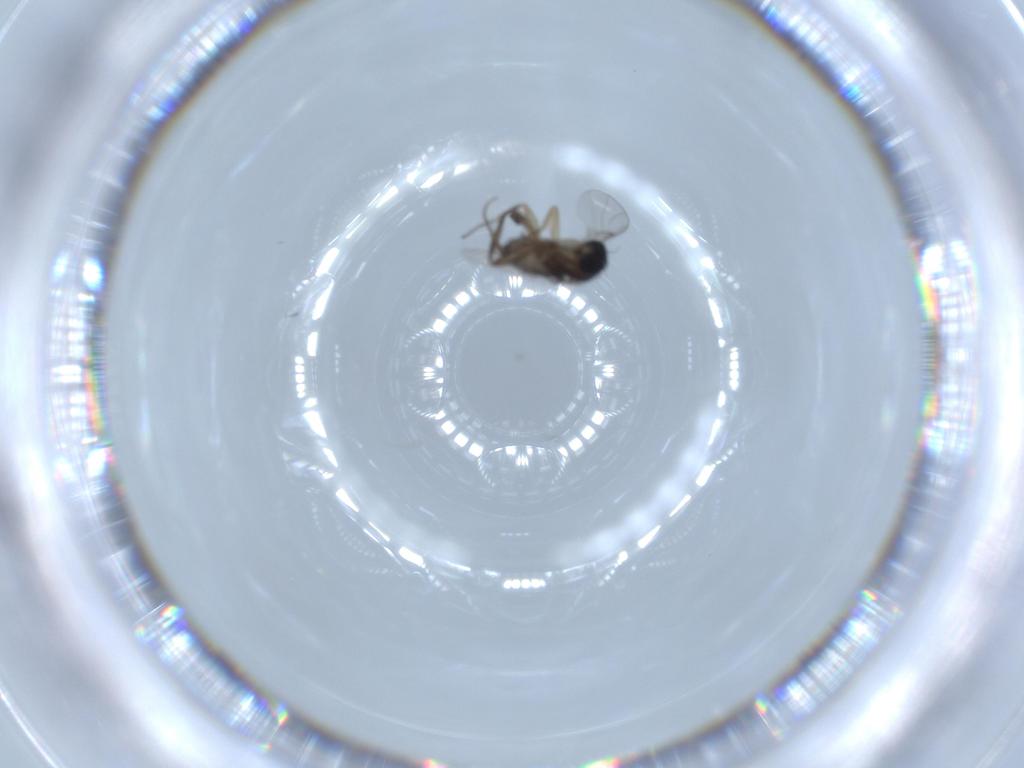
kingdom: Animalia
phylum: Arthropoda
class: Insecta
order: Diptera
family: Phoridae
